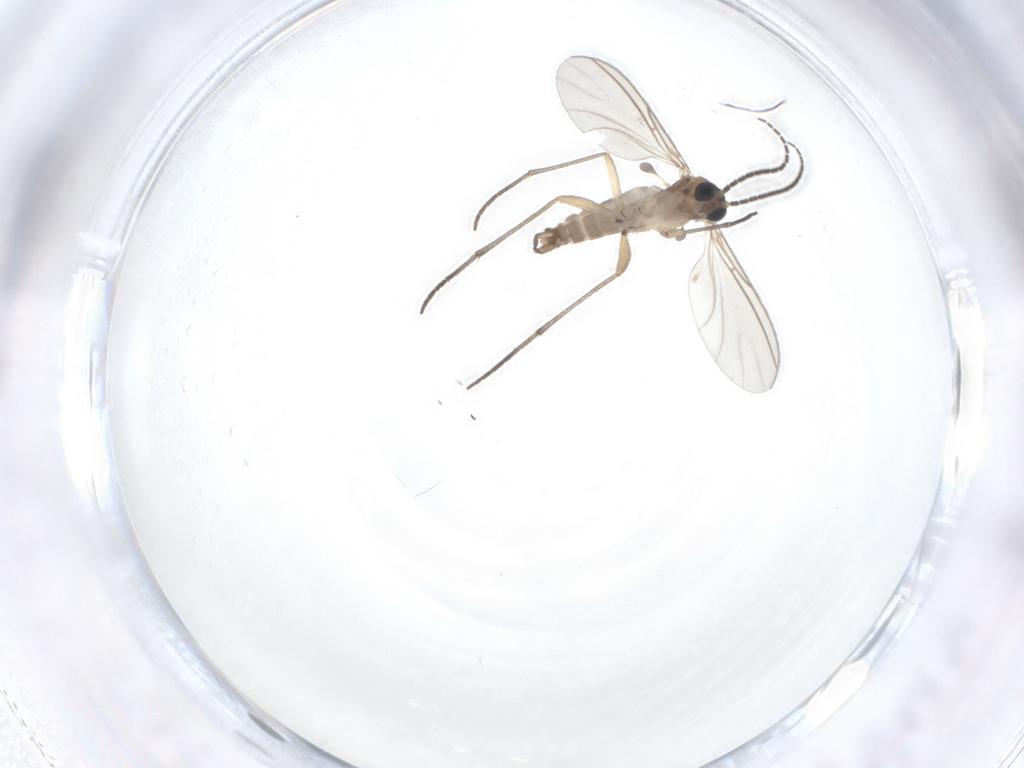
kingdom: Animalia
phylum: Arthropoda
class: Insecta
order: Diptera
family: Sciaridae
